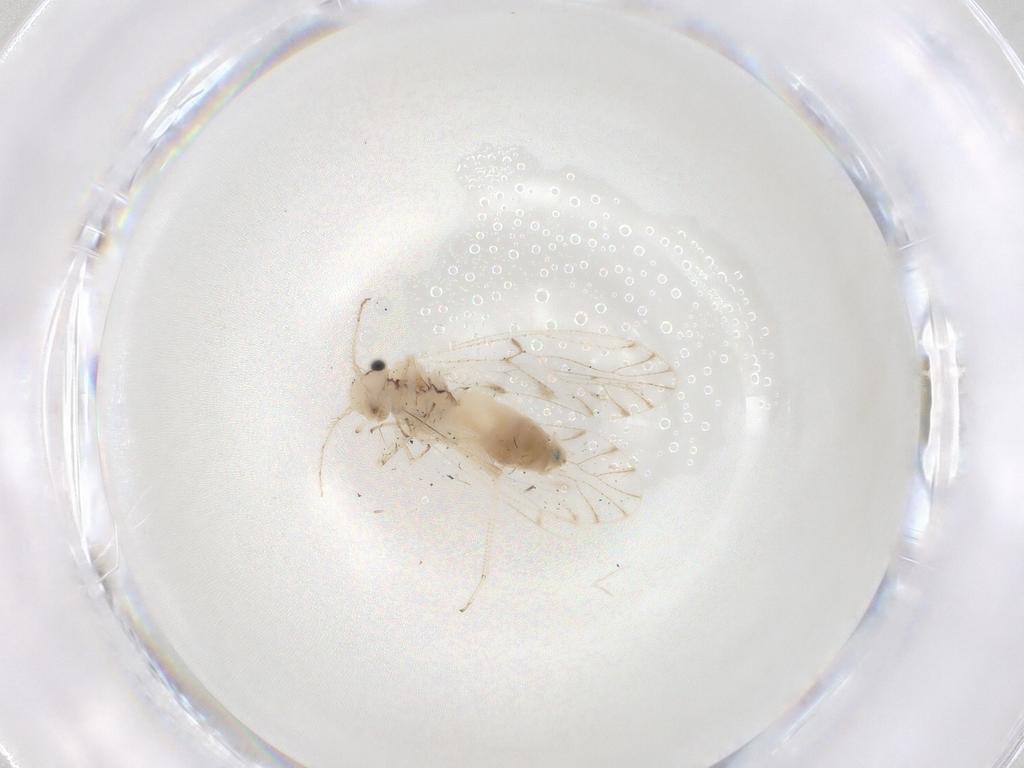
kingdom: Animalia
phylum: Arthropoda
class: Insecta
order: Psocodea
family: Trichopsocidae
